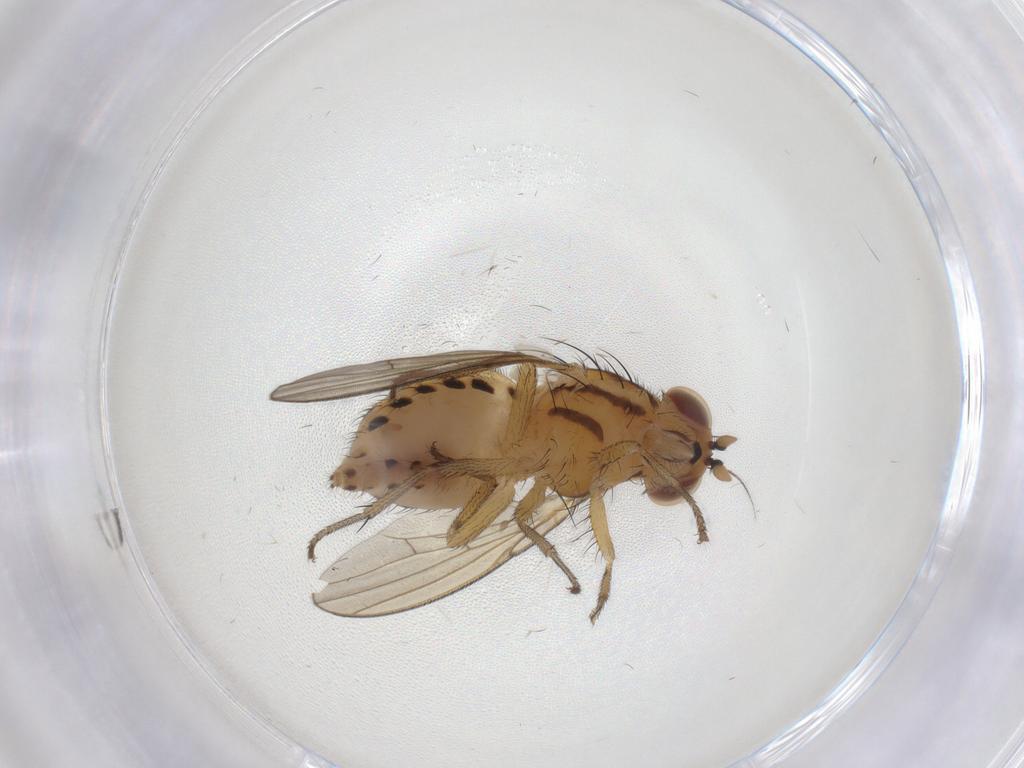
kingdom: Animalia
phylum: Arthropoda
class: Insecta
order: Diptera
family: Lauxaniidae
